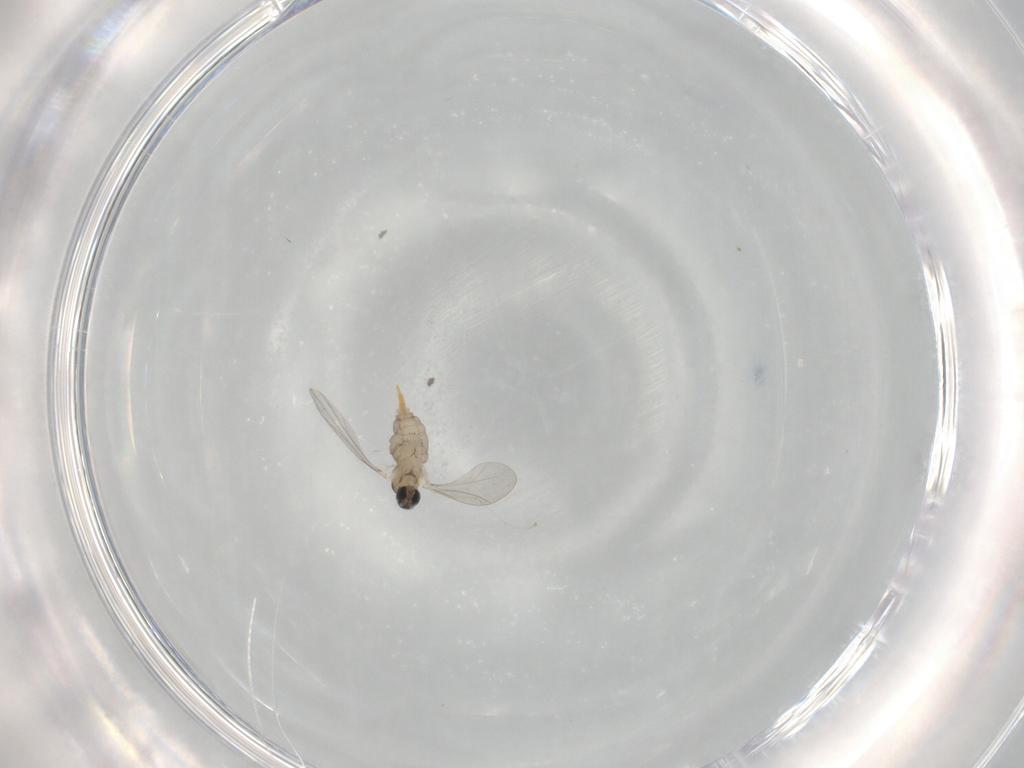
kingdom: Animalia
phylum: Arthropoda
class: Insecta
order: Diptera
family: Cecidomyiidae
